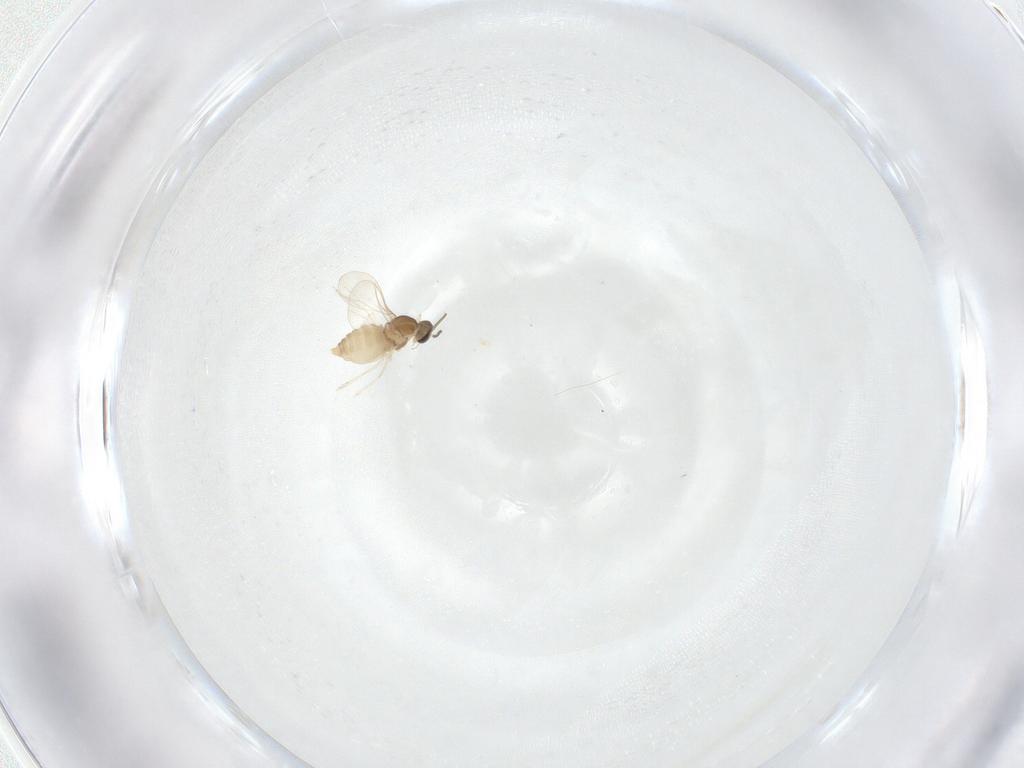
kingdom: Animalia
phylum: Arthropoda
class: Insecta
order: Diptera
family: Cecidomyiidae
